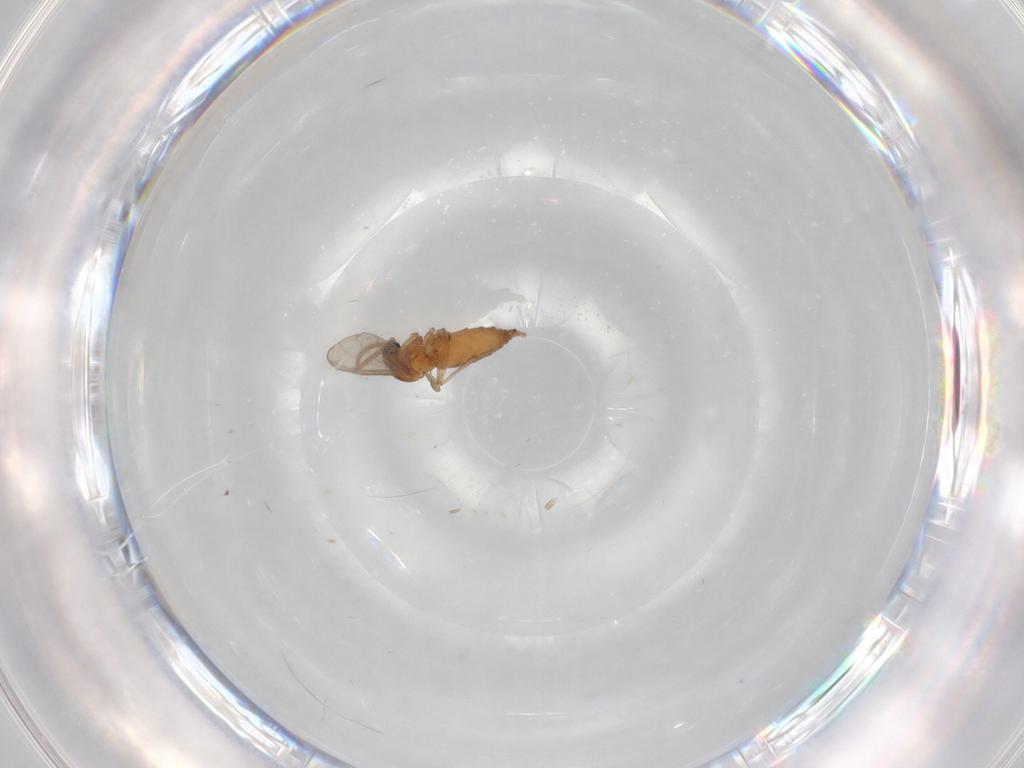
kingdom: Animalia
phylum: Arthropoda
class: Insecta
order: Diptera
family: Sciaridae
